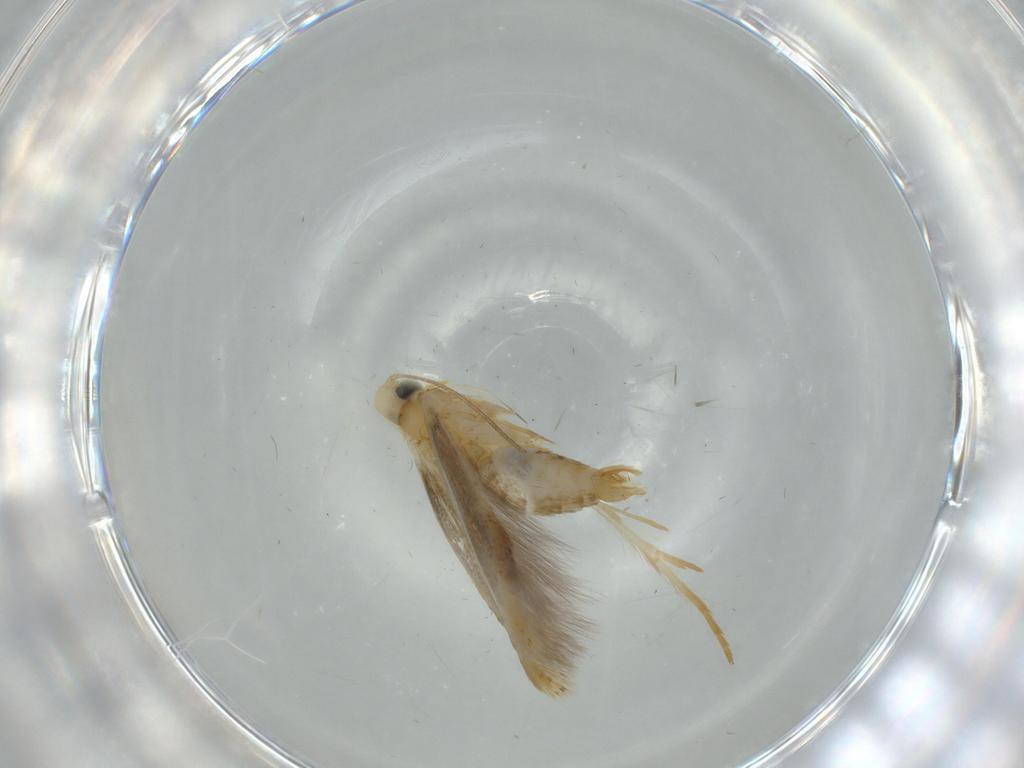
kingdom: Animalia
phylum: Arthropoda
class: Insecta
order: Lepidoptera
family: Tischeriidae
